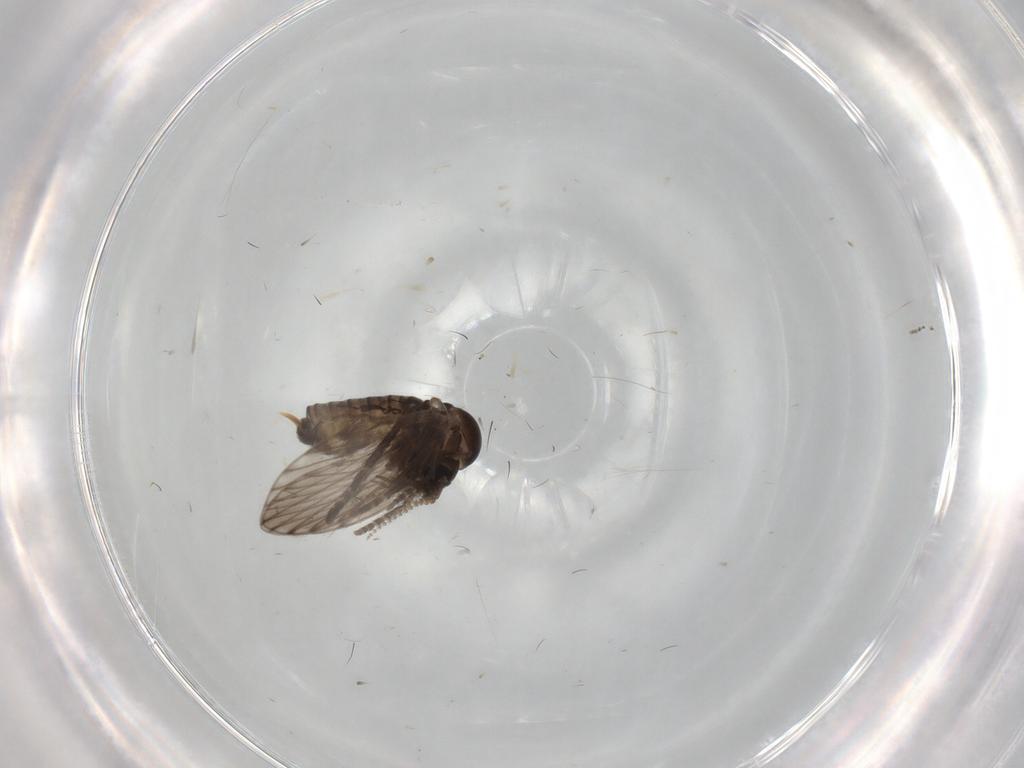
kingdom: Animalia
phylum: Arthropoda
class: Insecta
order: Diptera
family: Psychodidae
